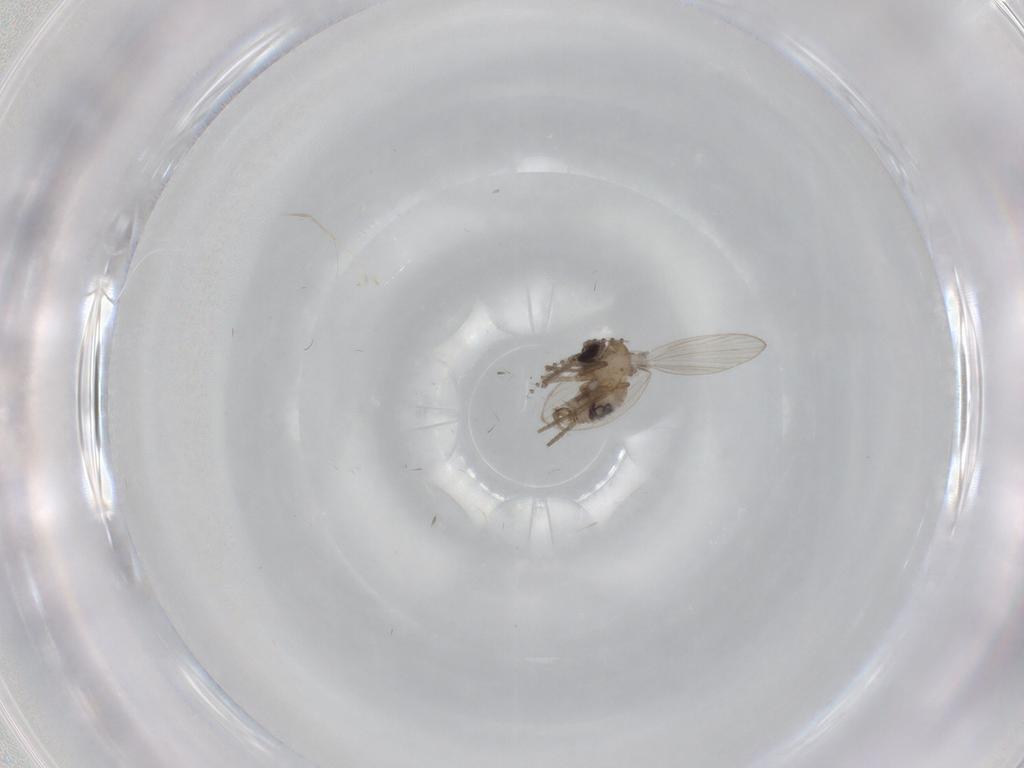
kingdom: Animalia
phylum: Arthropoda
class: Insecta
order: Diptera
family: Psychodidae
